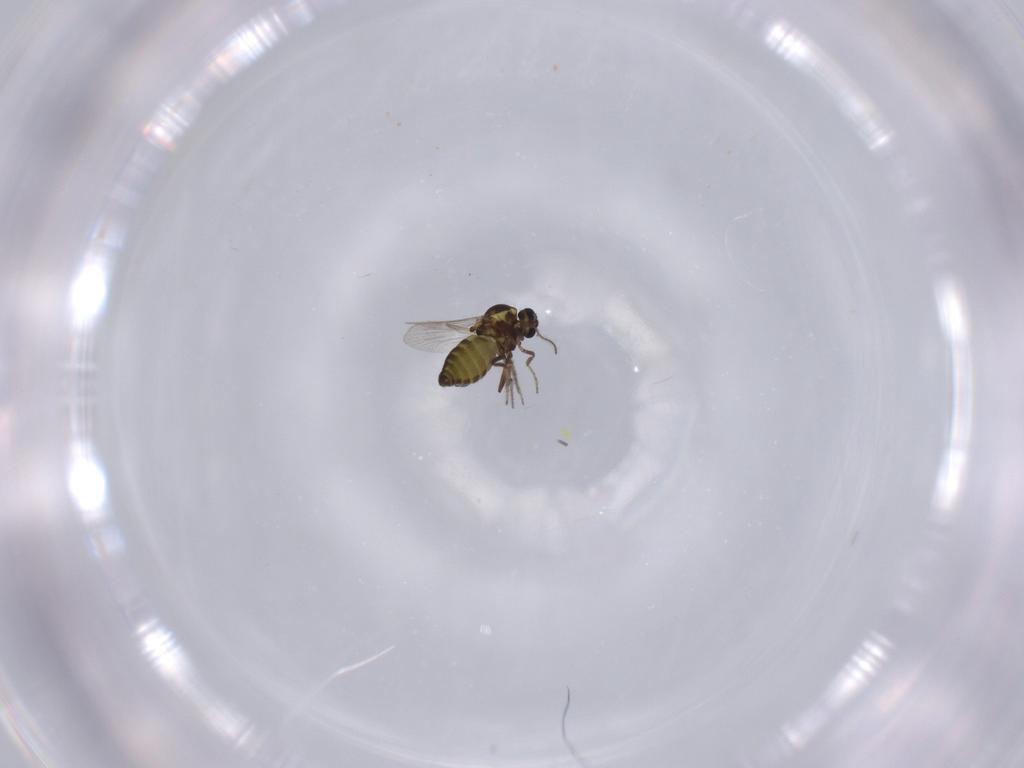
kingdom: Animalia
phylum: Arthropoda
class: Insecta
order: Diptera
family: Ceratopogonidae
